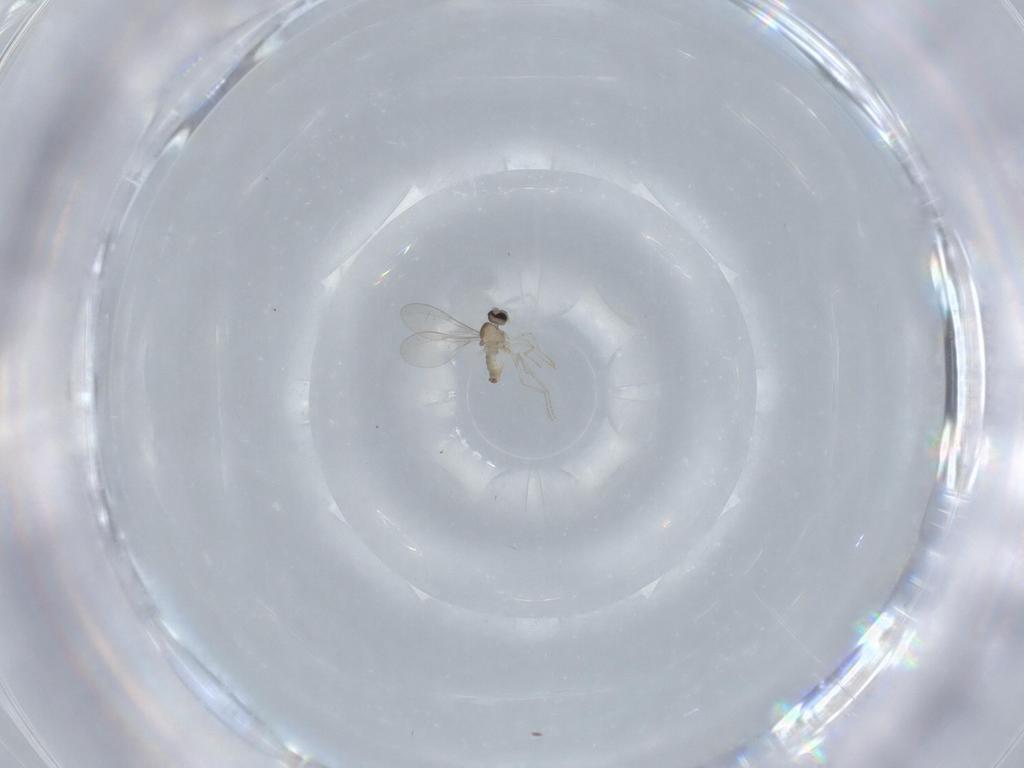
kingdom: Animalia
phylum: Arthropoda
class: Insecta
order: Diptera
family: Cecidomyiidae
